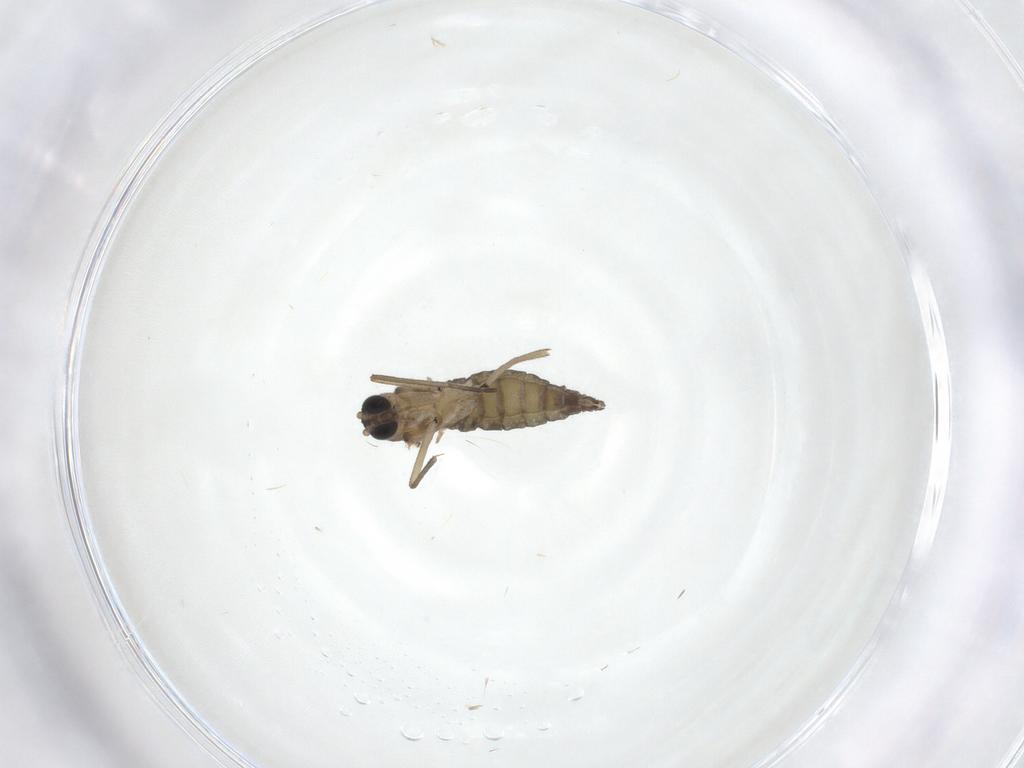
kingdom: Animalia
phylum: Arthropoda
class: Insecta
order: Diptera
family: Sciaridae
